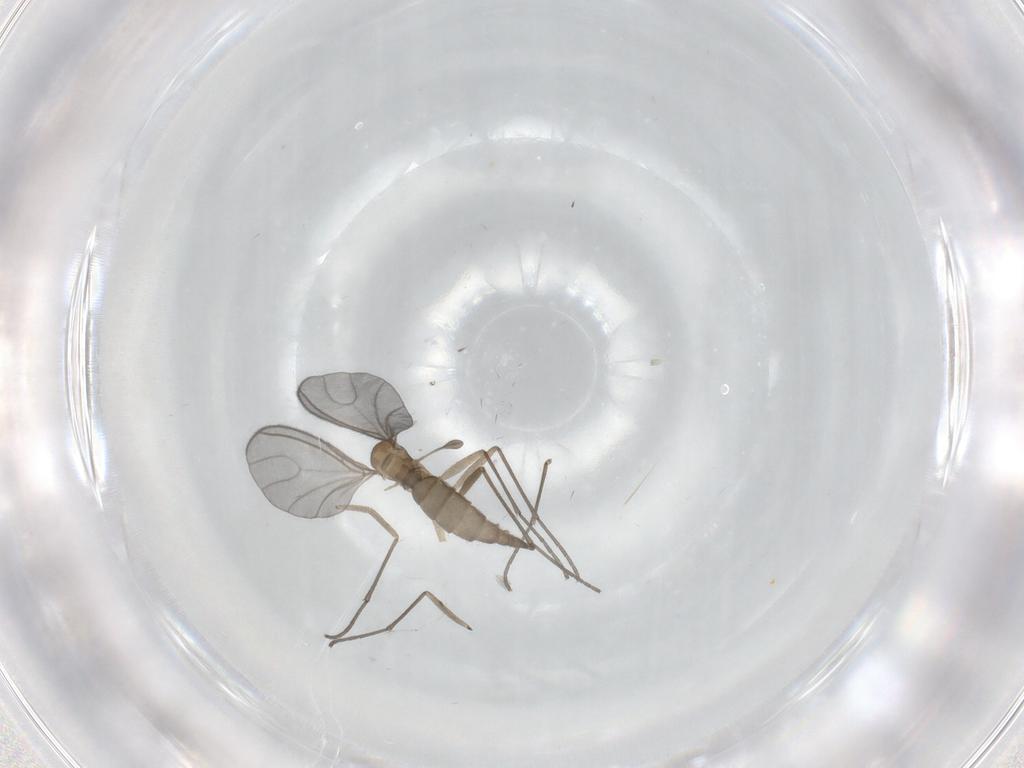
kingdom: Animalia
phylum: Arthropoda
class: Insecta
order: Diptera
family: Sciaridae
